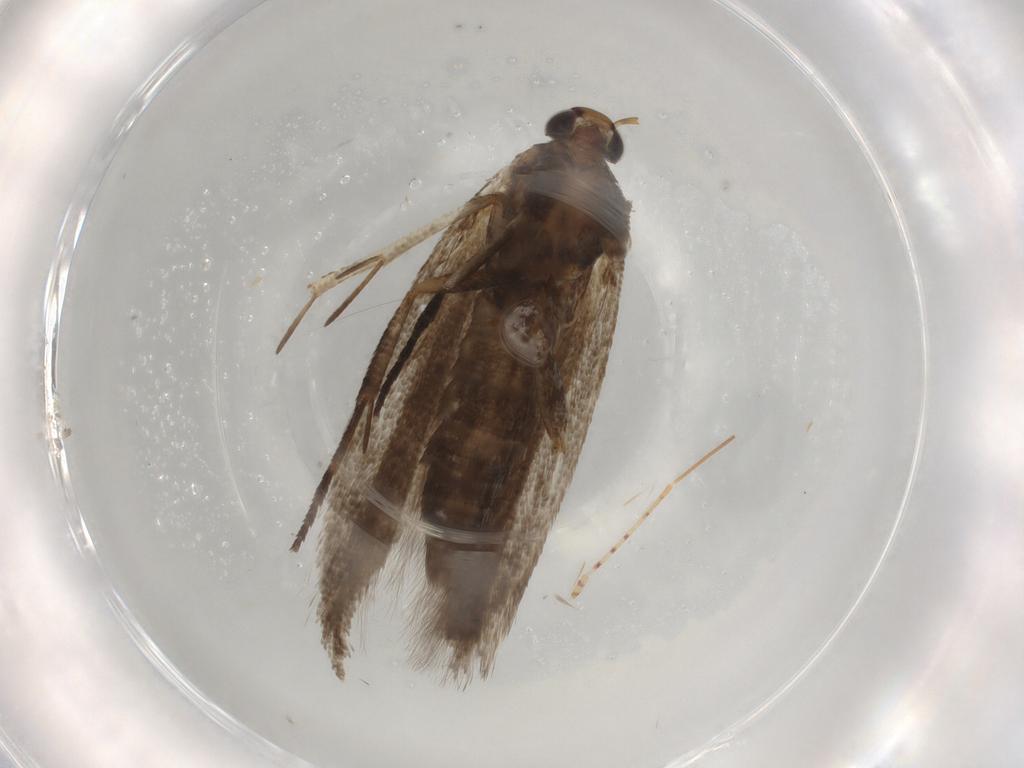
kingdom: Animalia
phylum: Arthropoda
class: Insecta
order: Lepidoptera
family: Gelechiidae
